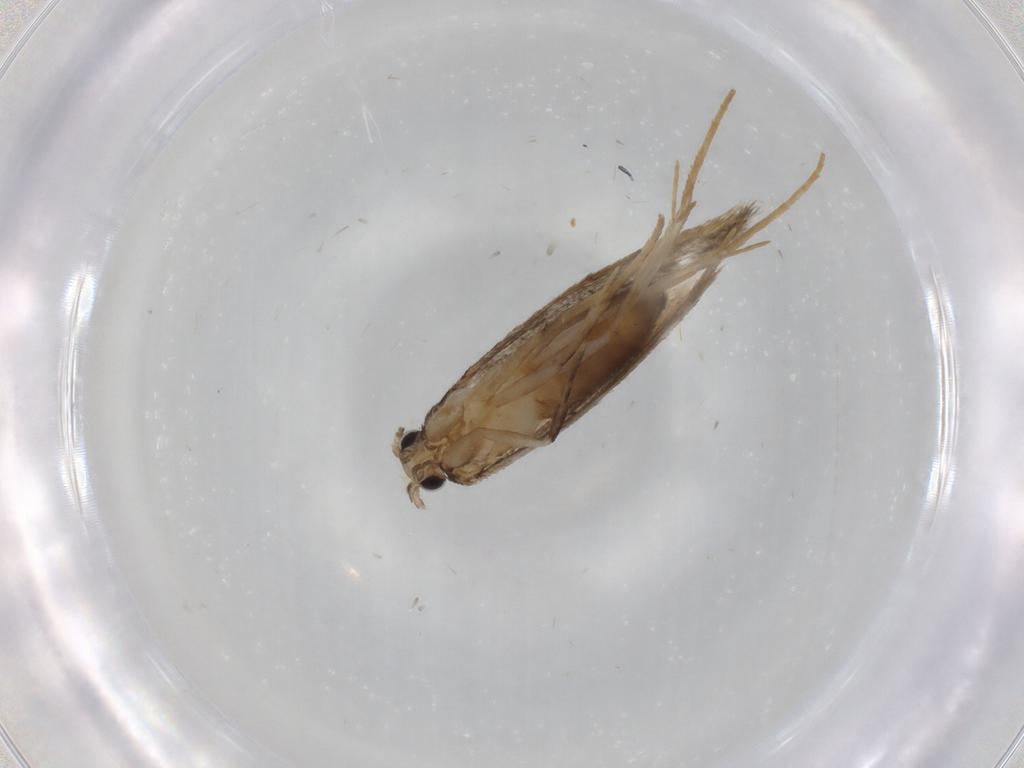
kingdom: Animalia
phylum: Arthropoda
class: Insecta
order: Lepidoptera
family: Meessiidae
